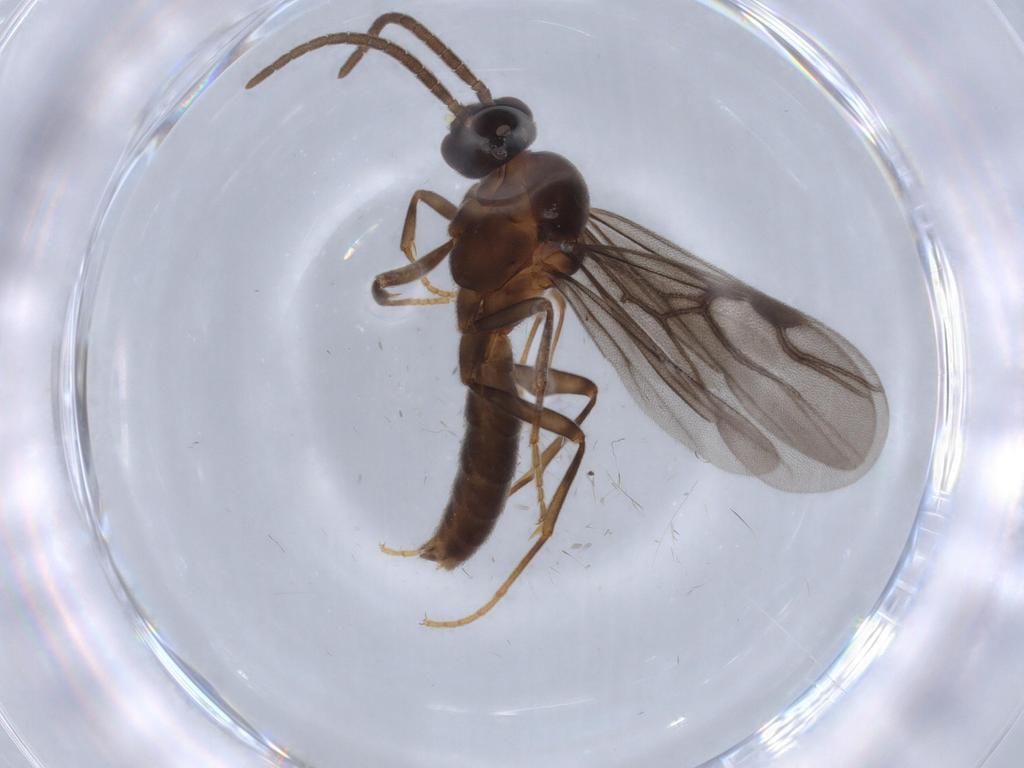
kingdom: Animalia
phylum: Arthropoda
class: Insecta
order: Hymenoptera
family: Formicidae
